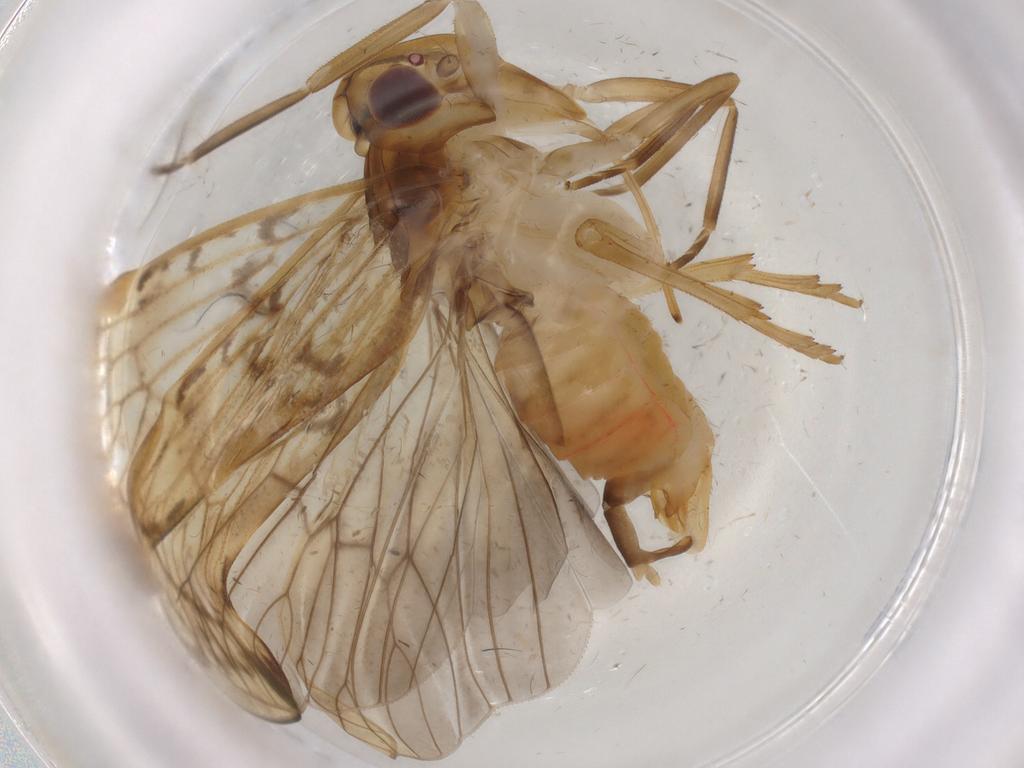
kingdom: Animalia
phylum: Arthropoda
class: Insecta
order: Hemiptera
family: Cixiidae
